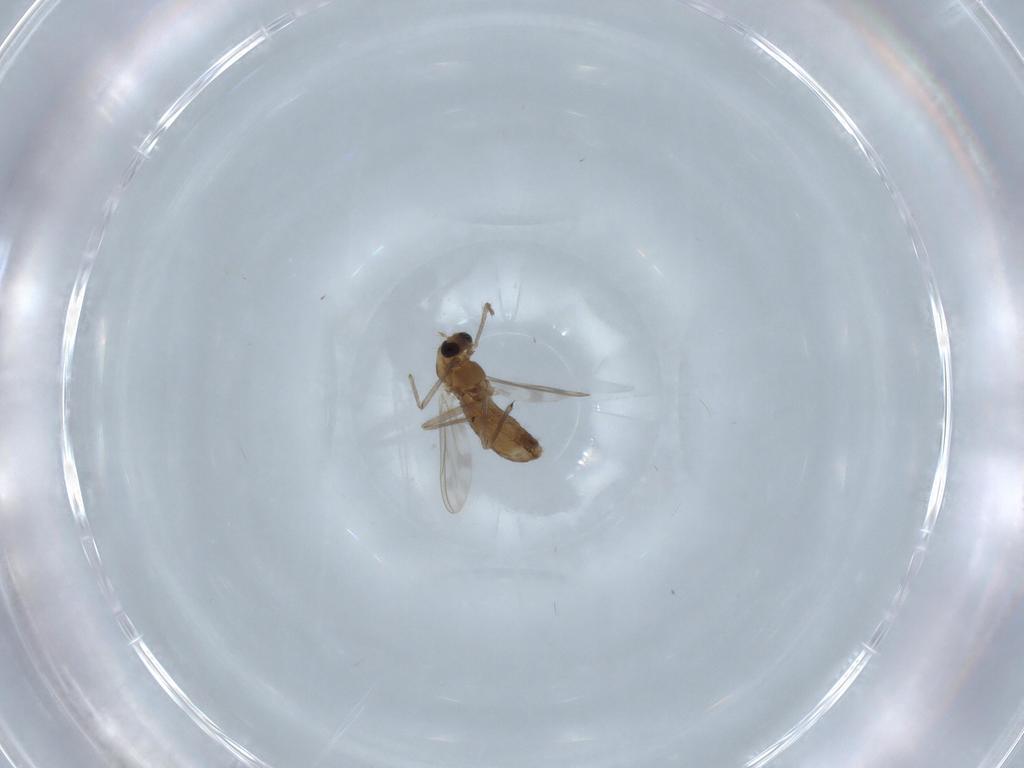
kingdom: Animalia
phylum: Arthropoda
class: Insecta
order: Diptera
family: Chironomidae
